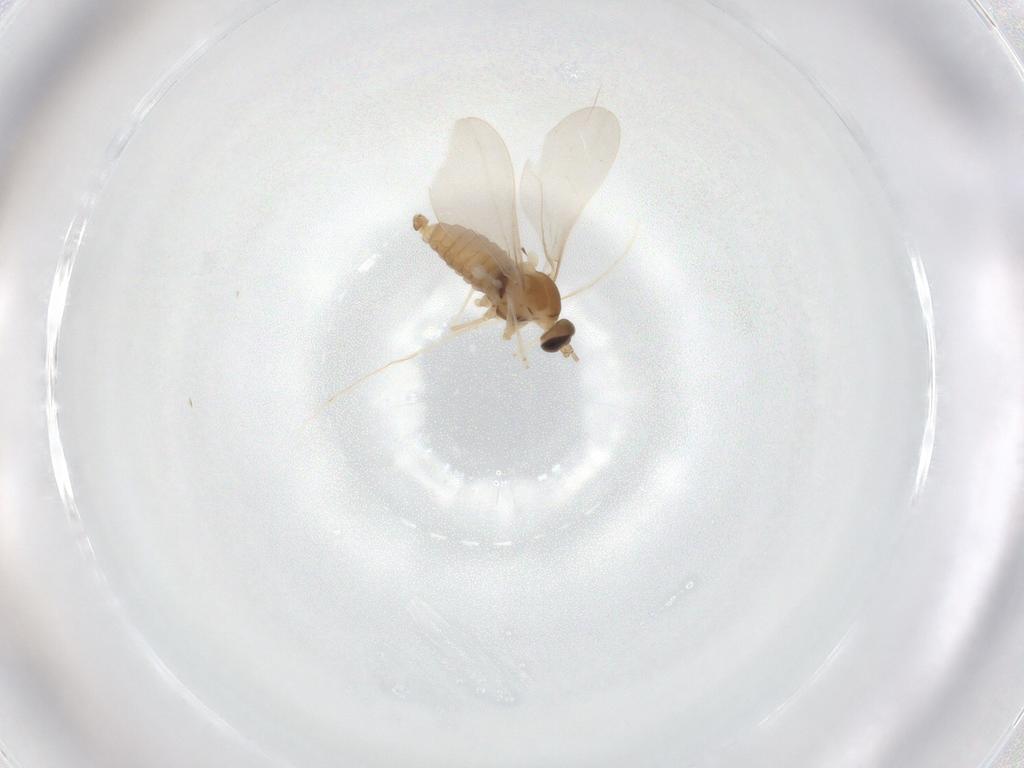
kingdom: Animalia
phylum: Arthropoda
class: Insecta
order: Diptera
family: Cecidomyiidae
